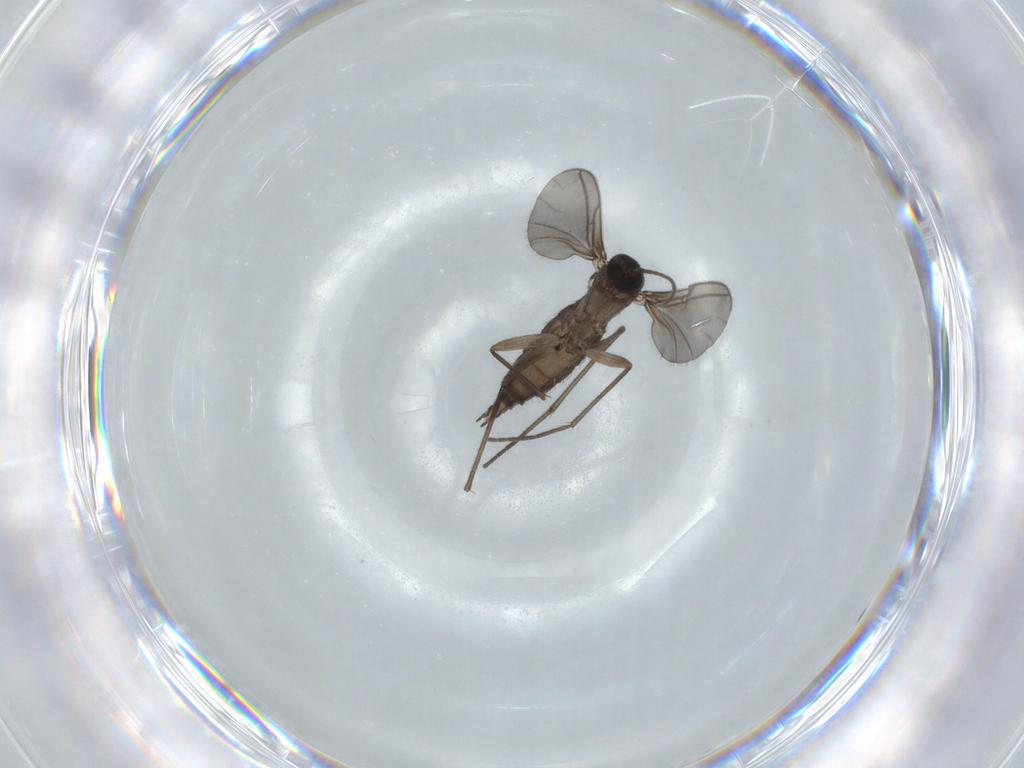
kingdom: Animalia
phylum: Arthropoda
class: Insecta
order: Diptera
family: Sciaridae
